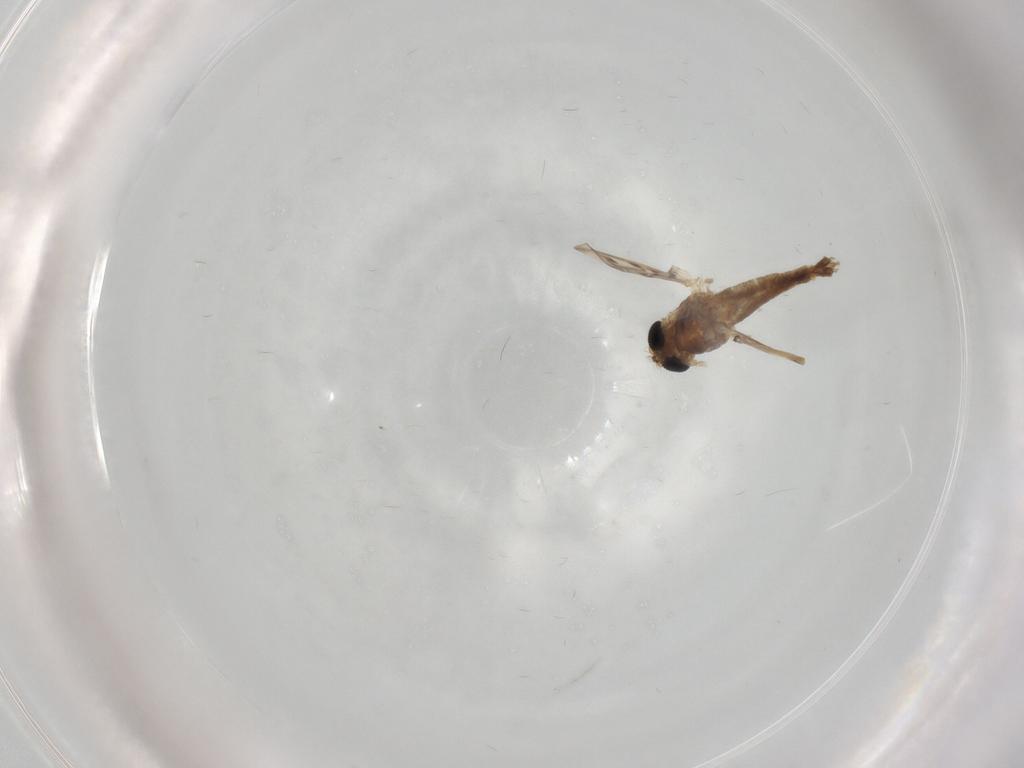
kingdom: Animalia
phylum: Arthropoda
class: Insecta
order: Diptera
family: Chironomidae
